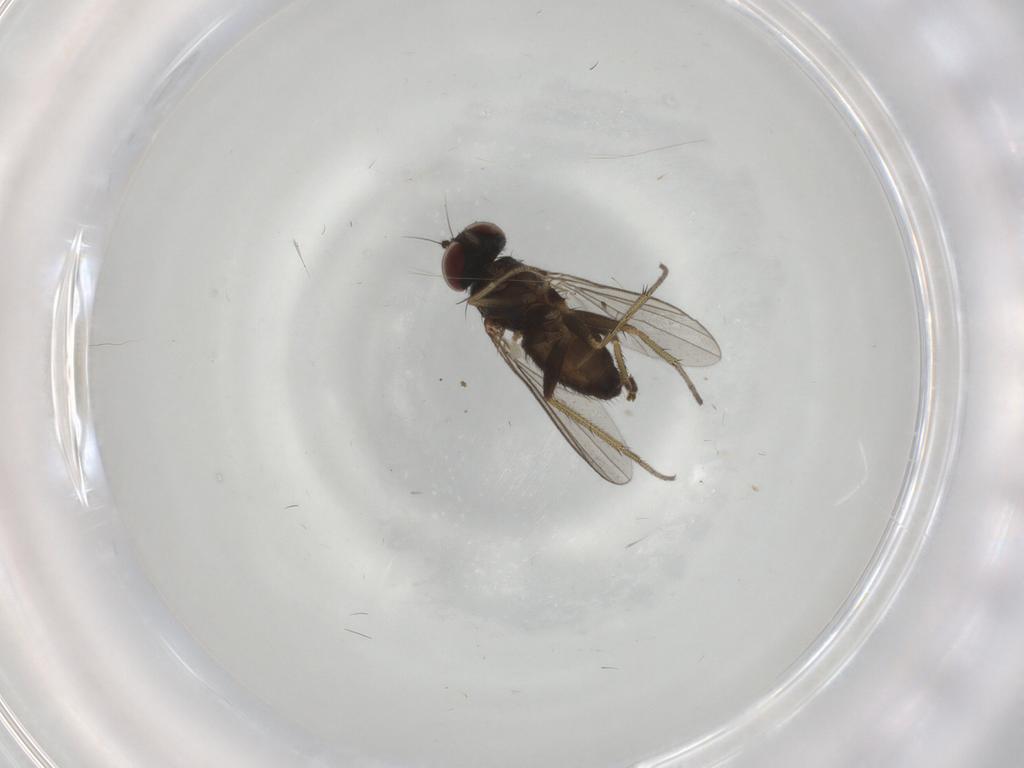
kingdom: Animalia
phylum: Arthropoda
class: Insecta
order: Diptera
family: Dolichopodidae
